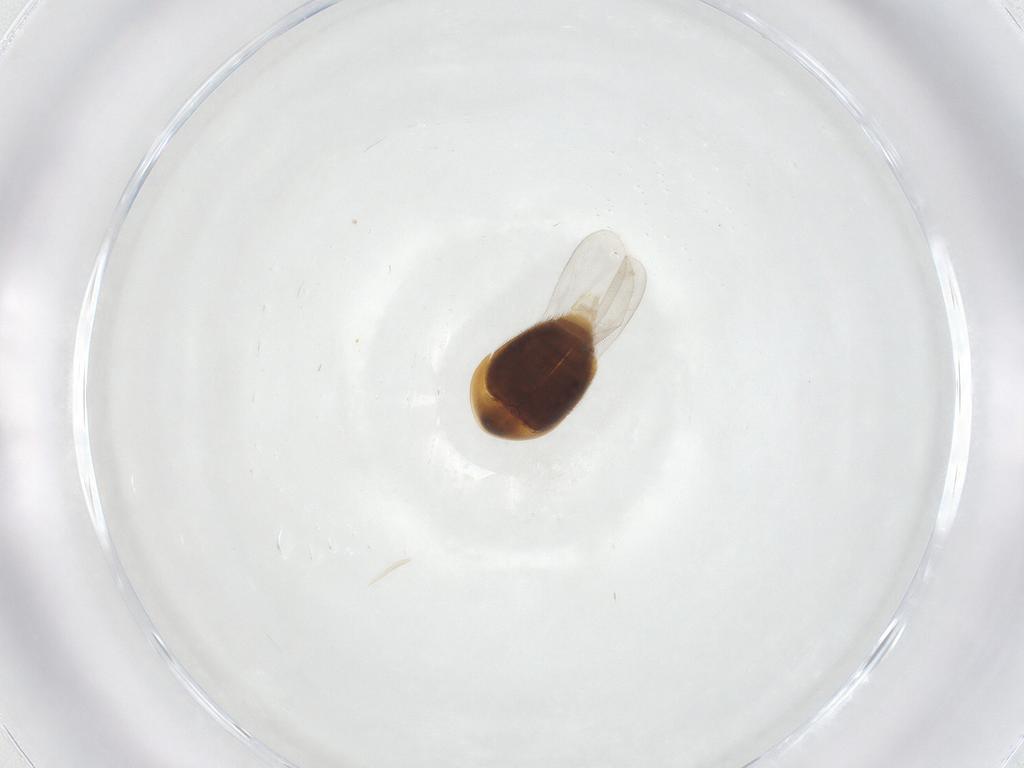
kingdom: Animalia
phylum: Arthropoda
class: Insecta
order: Coleoptera
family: Corylophidae
